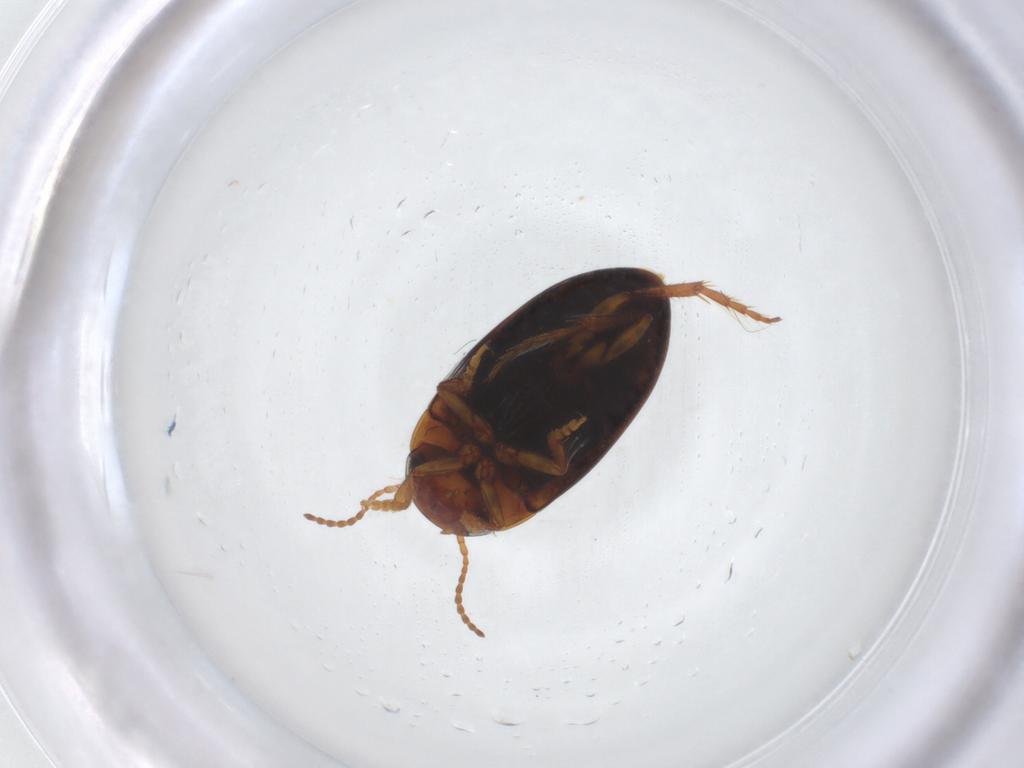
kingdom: Animalia
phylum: Arthropoda
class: Insecta
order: Coleoptera
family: Dytiscidae
